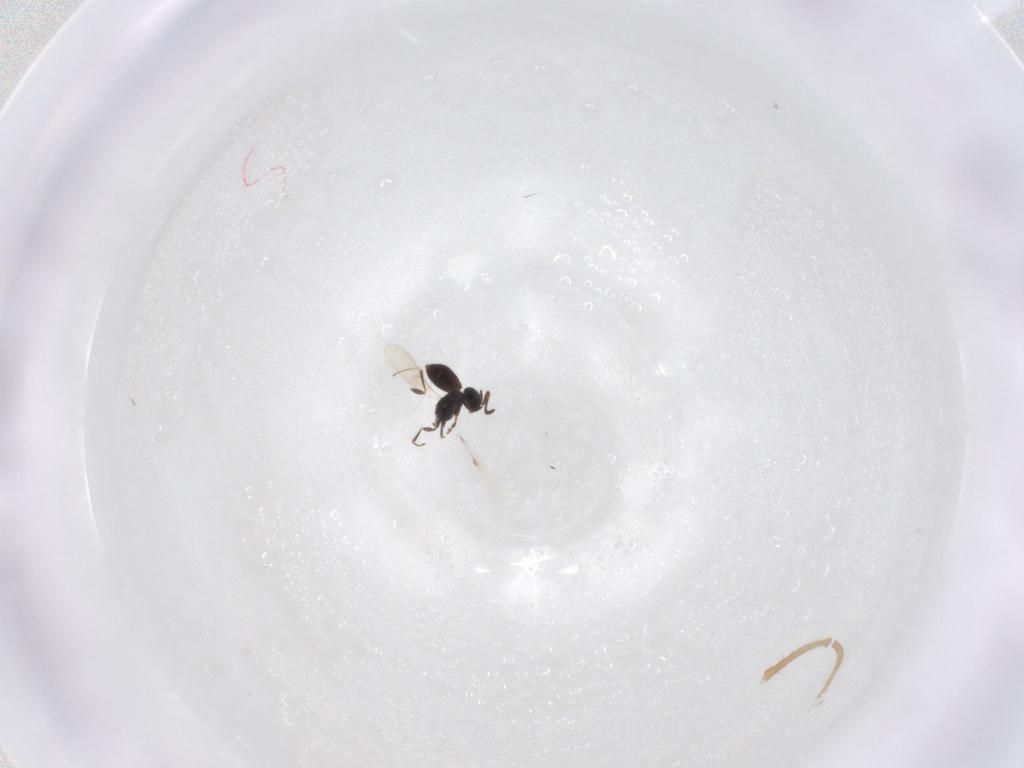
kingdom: Animalia
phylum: Arthropoda
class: Insecta
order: Hymenoptera
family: Scelionidae
